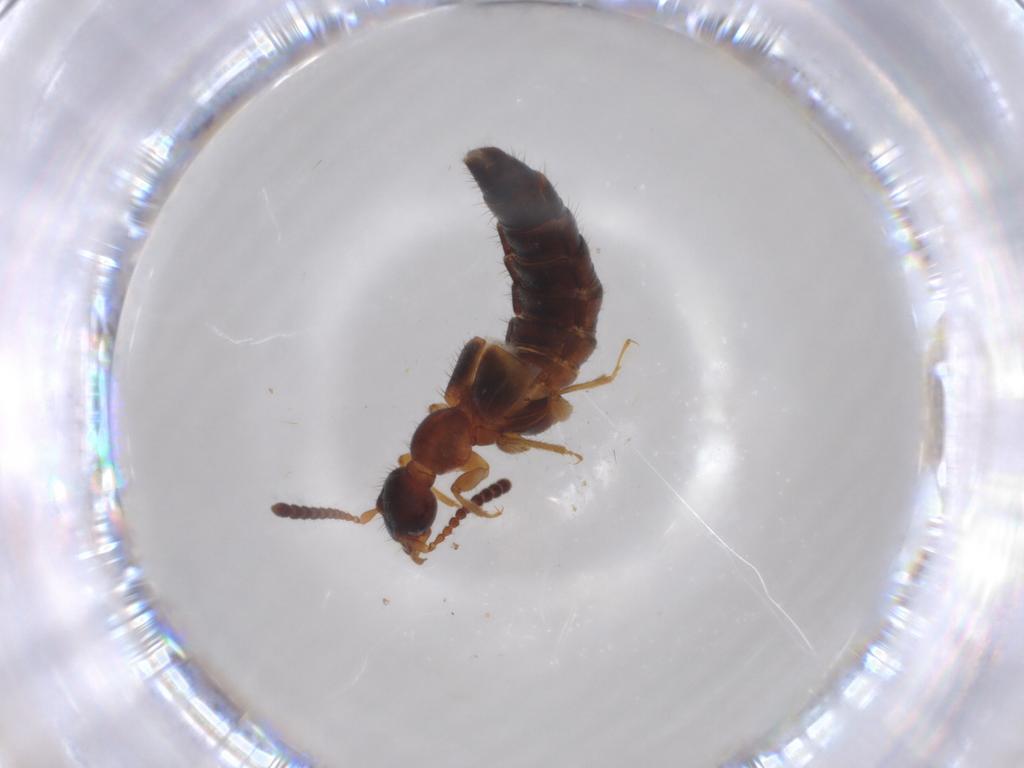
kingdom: Animalia
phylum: Arthropoda
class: Insecta
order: Coleoptera
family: Staphylinidae
